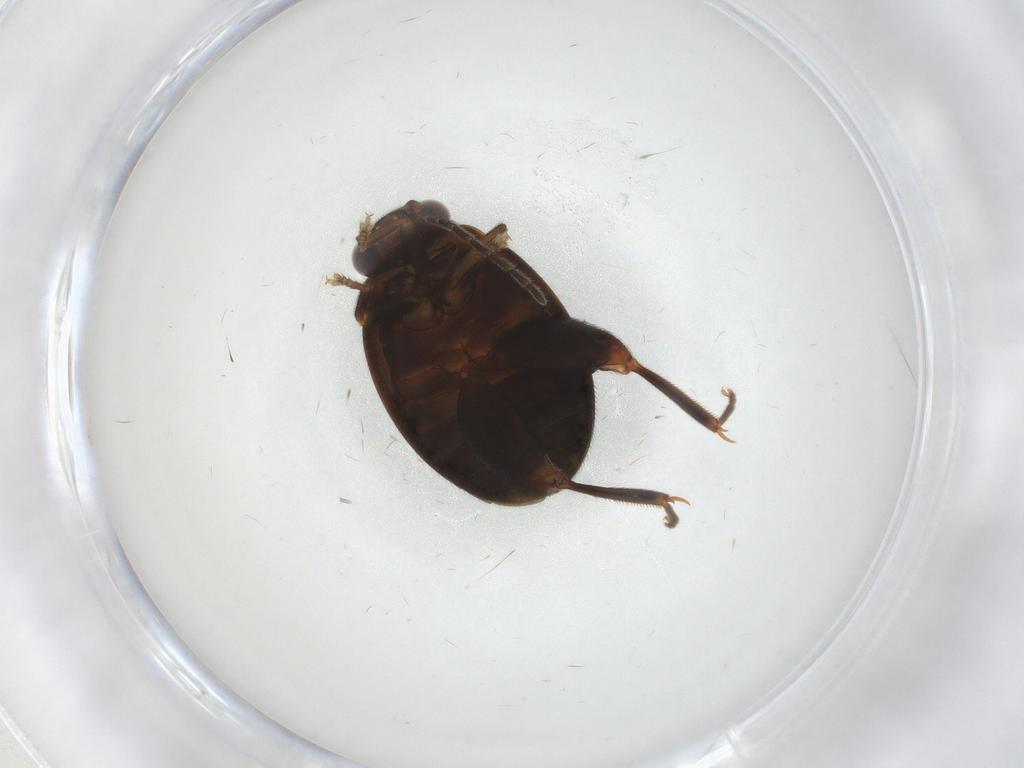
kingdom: Animalia
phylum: Arthropoda
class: Insecta
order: Coleoptera
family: Scirtidae
